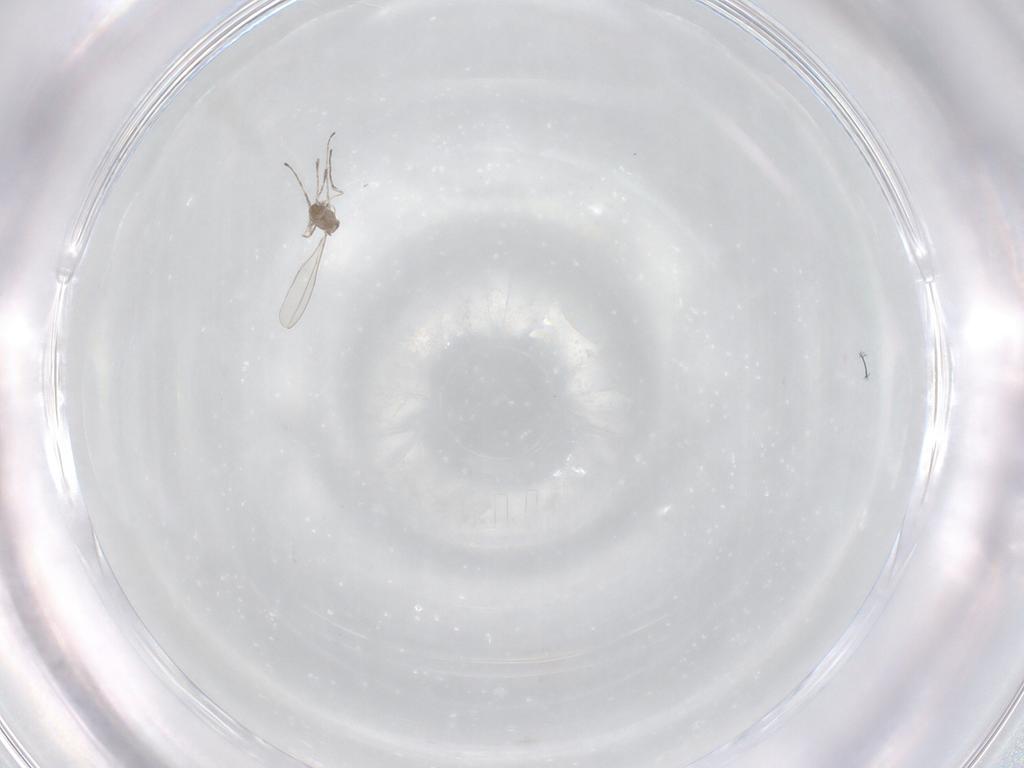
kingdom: Animalia
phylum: Arthropoda
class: Insecta
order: Diptera
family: Cecidomyiidae
